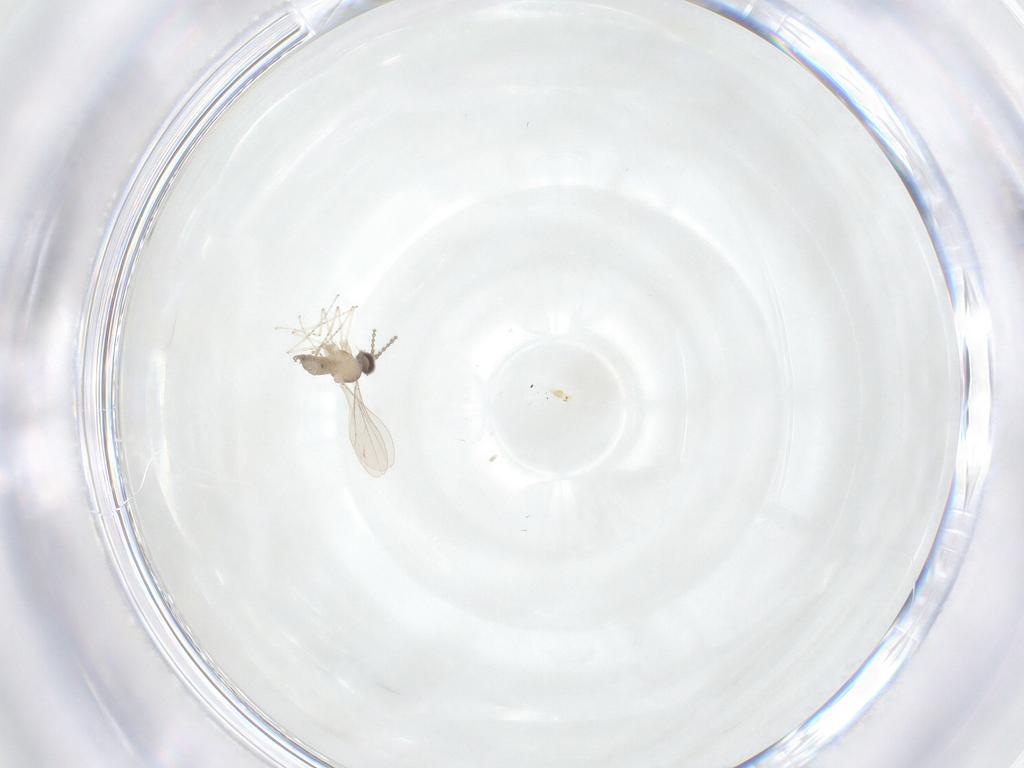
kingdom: Animalia
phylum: Arthropoda
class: Insecta
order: Diptera
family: Cecidomyiidae
